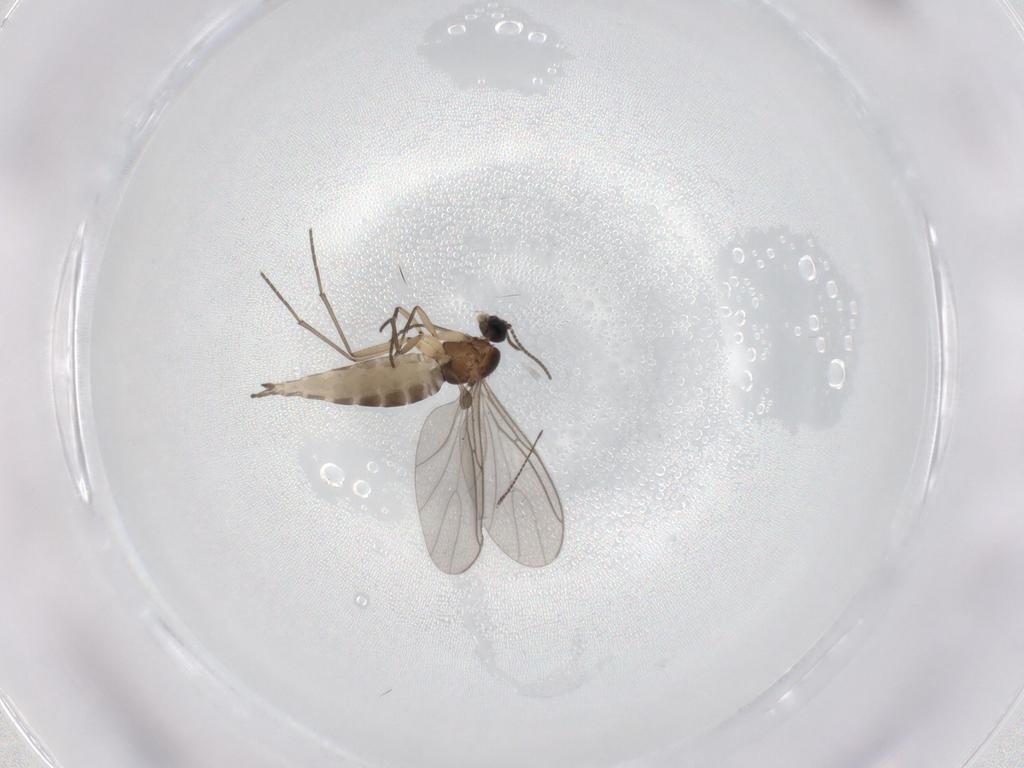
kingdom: Animalia
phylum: Arthropoda
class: Insecta
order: Diptera
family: Sciaridae
